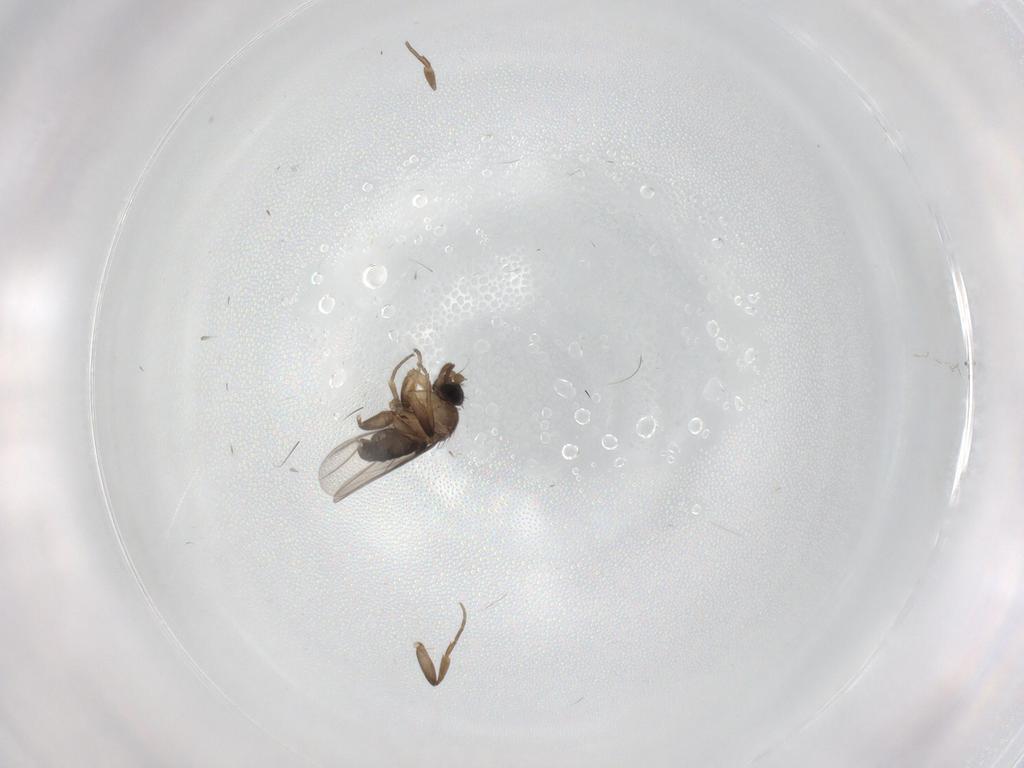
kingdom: Animalia
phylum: Arthropoda
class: Insecta
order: Diptera
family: Phoridae
